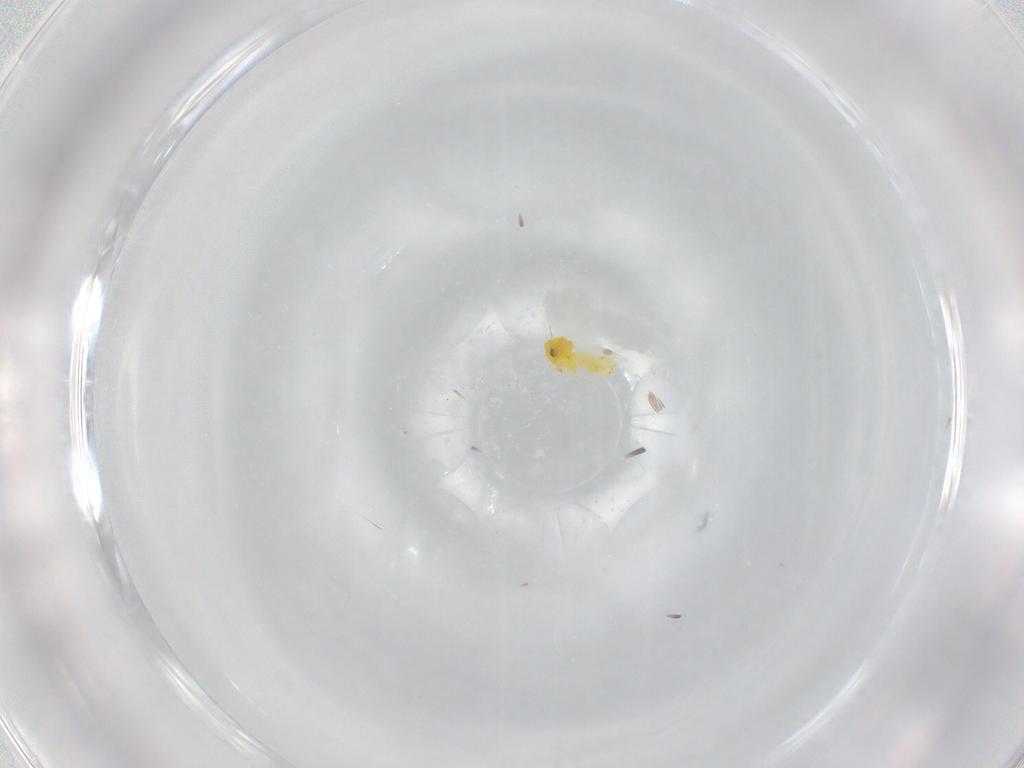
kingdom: Animalia
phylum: Arthropoda
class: Insecta
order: Hemiptera
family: Aleyrodidae
